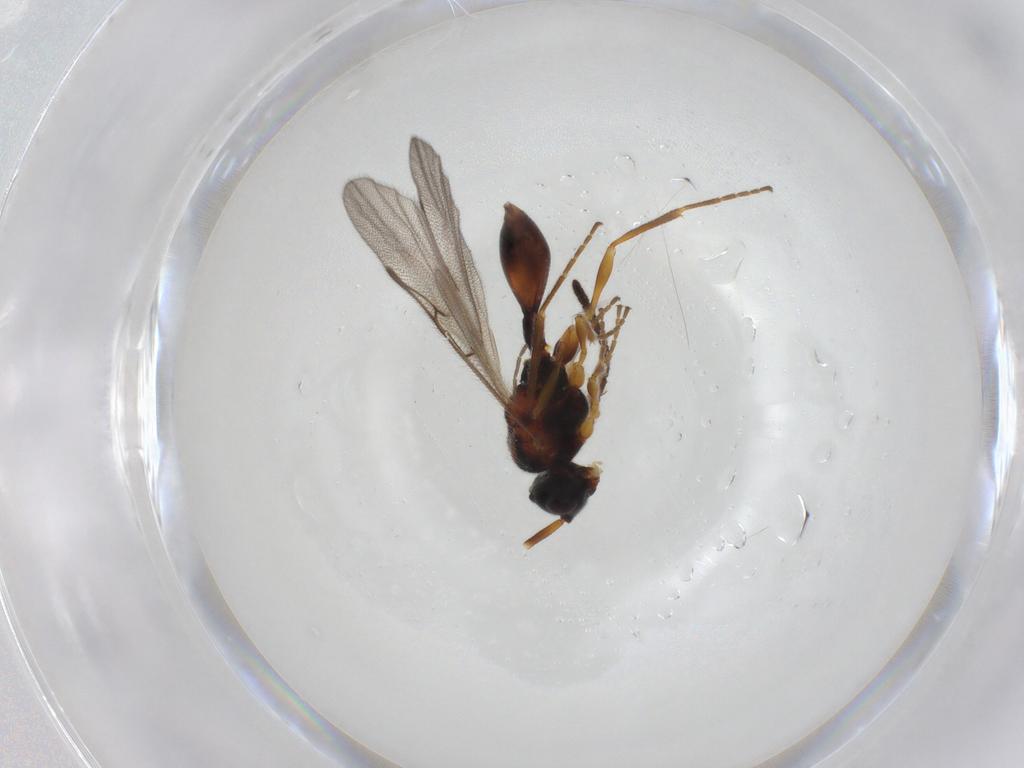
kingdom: Animalia
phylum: Arthropoda
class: Insecta
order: Hymenoptera
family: Diapriidae
